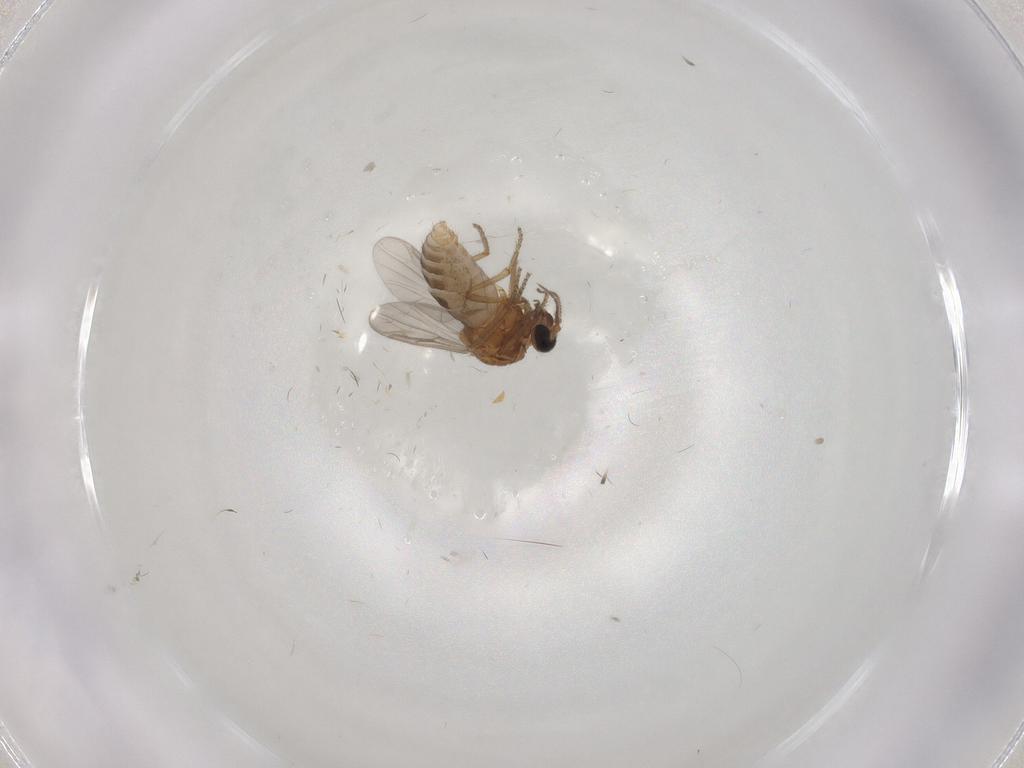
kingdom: Animalia
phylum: Arthropoda
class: Insecta
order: Diptera
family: Ceratopogonidae
